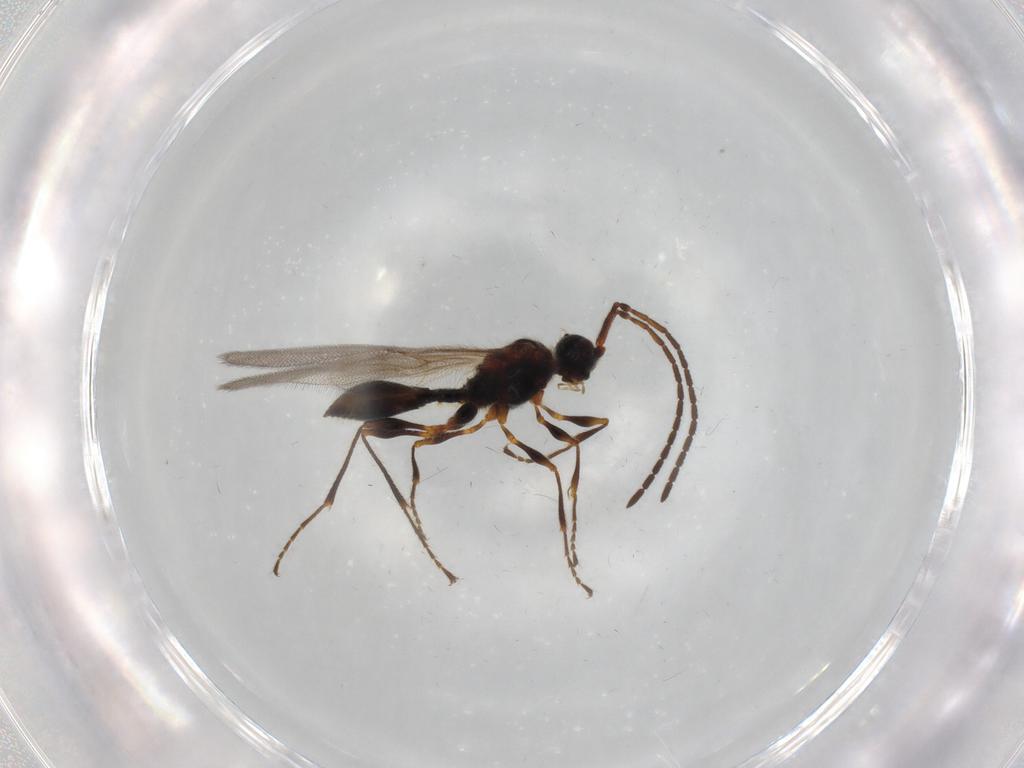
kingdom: Animalia
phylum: Arthropoda
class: Insecta
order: Hymenoptera
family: Diapriidae
